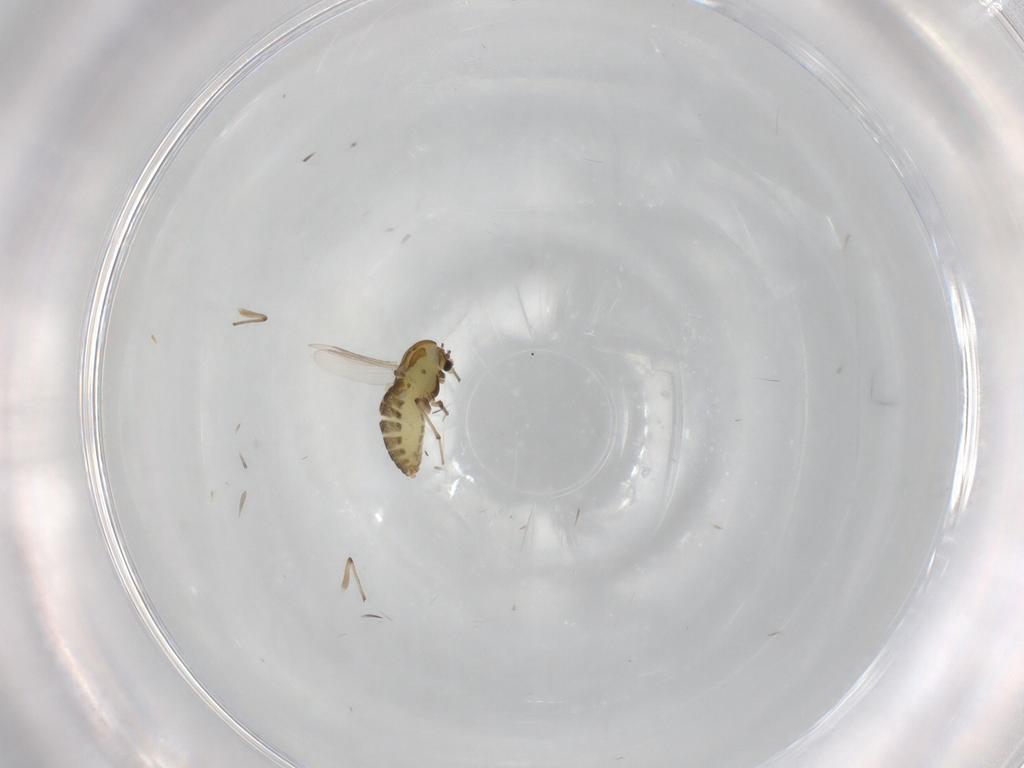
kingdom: Animalia
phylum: Arthropoda
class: Insecta
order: Diptera
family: Chironomidae
